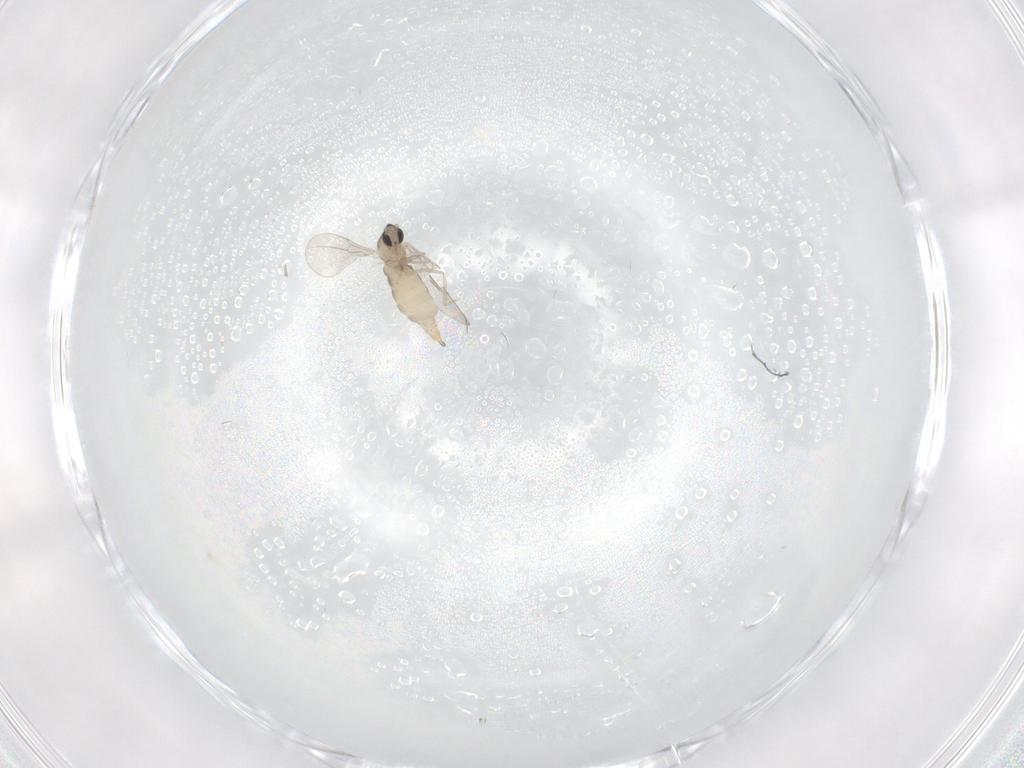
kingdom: Animalia
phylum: Arthropoda
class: Insecta
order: Diptera
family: Cecidomyiidae
